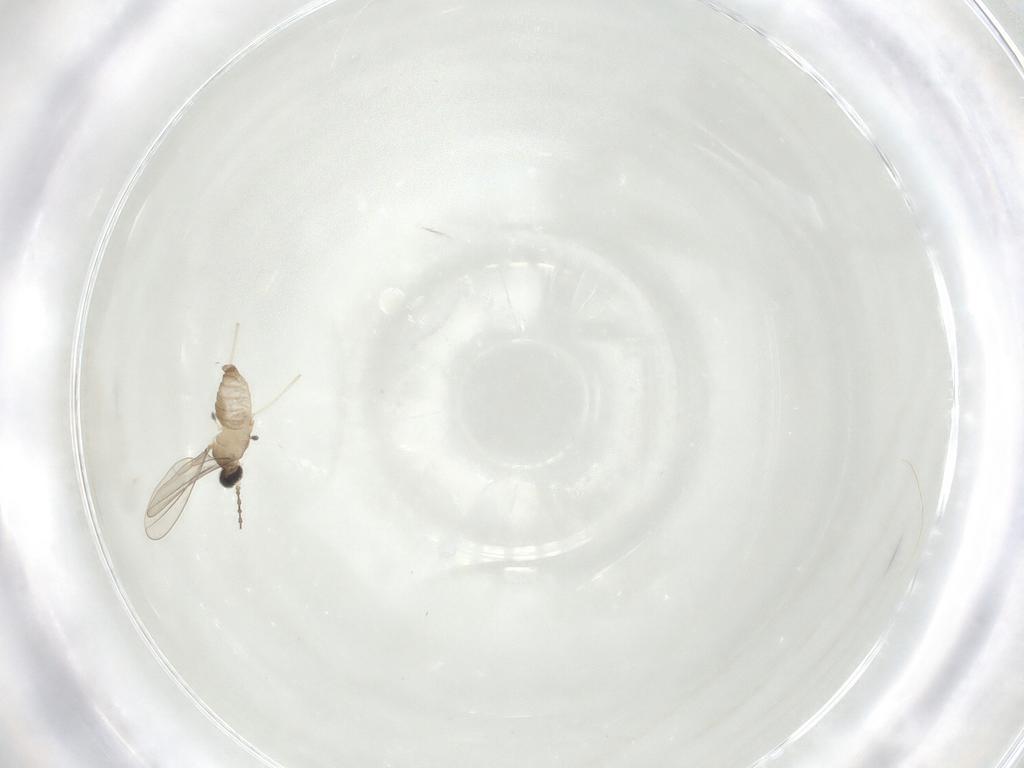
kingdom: Animalia
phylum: Arthropoda
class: Insecta
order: Diptera
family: Cecidomyiidae
